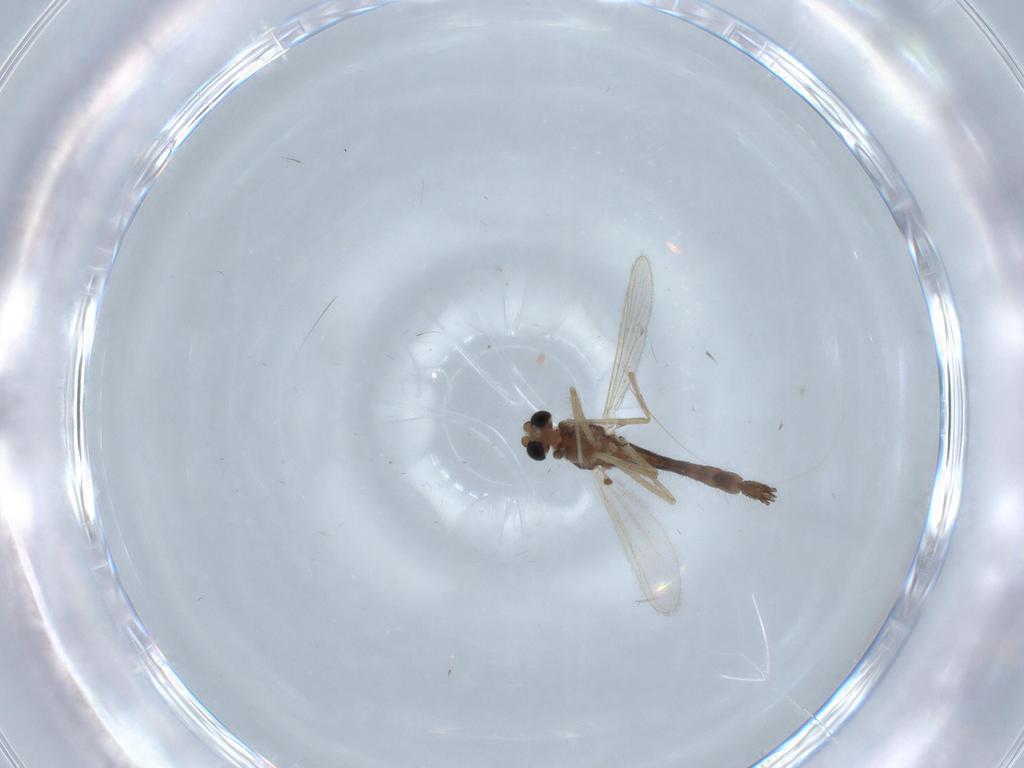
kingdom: Animalia
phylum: Arthropoda
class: Insecta
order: Diptera
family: Chironomidae
